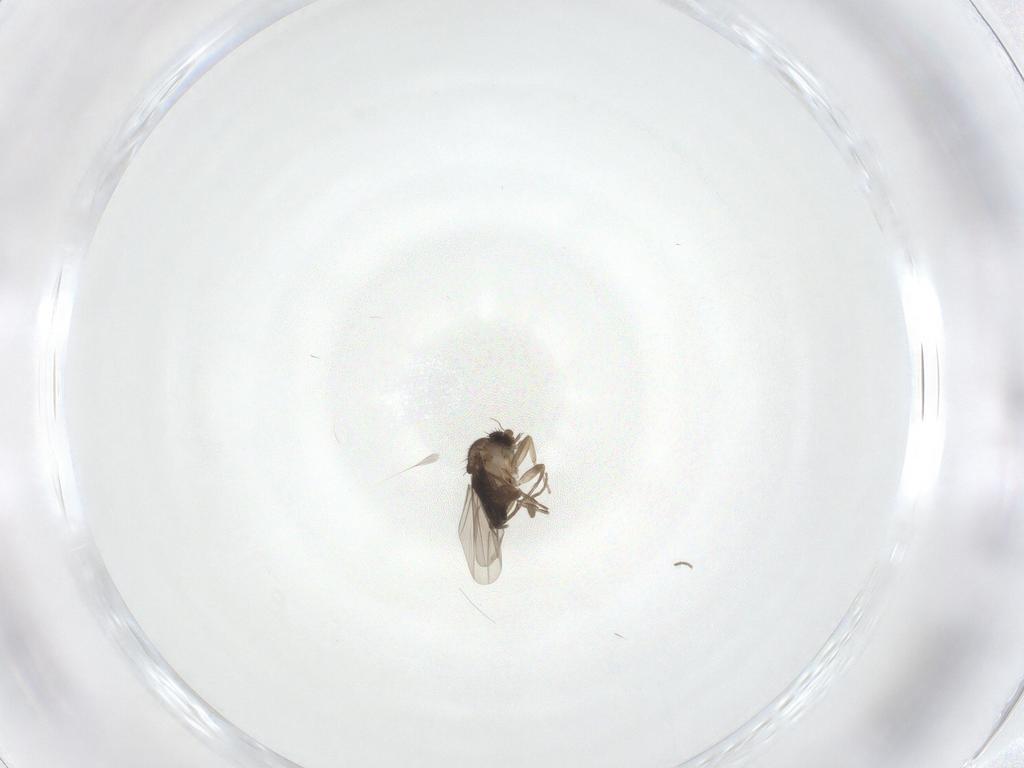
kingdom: Animalia
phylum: Arthropoda
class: Insecta
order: Diptera
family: Phoridae
